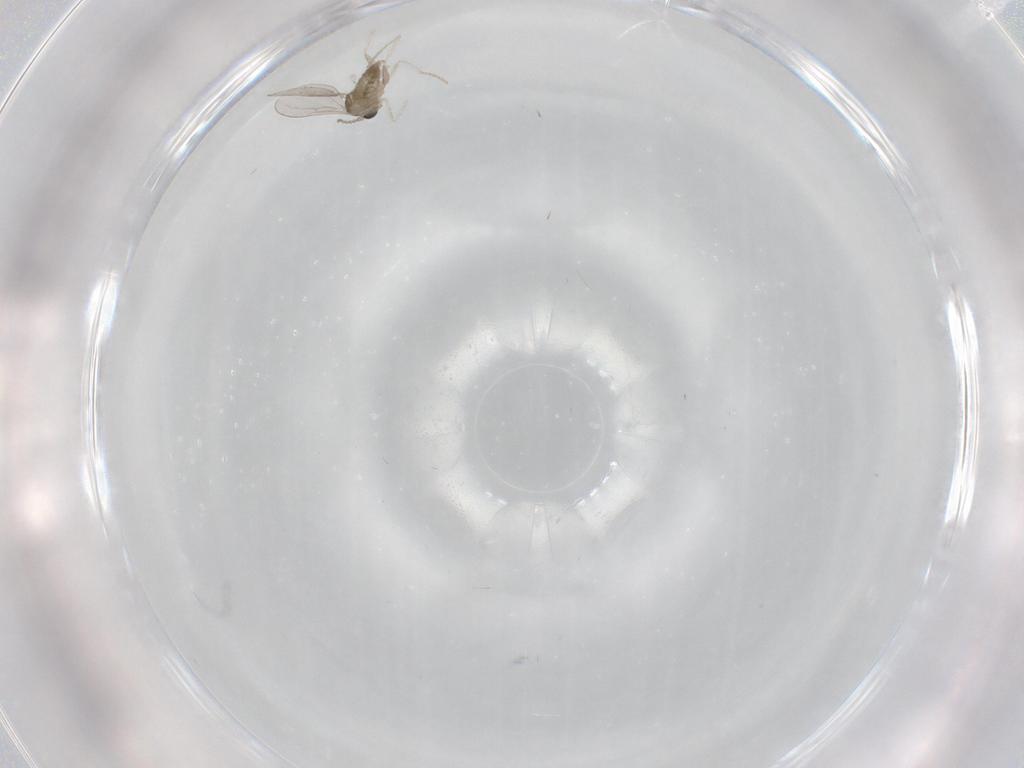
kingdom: Animalia
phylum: Arthropoda
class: Insecta
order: Diptera
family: Cecidomyiidae
